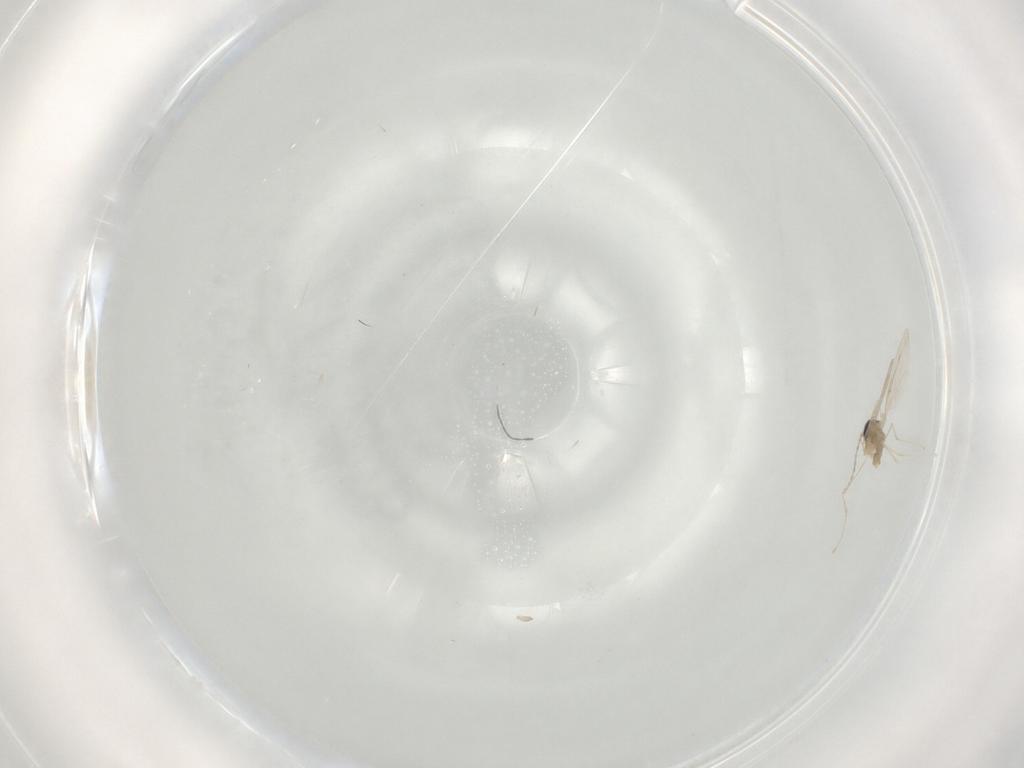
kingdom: Animalia
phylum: Arthropoda
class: Insecta
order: Diptera
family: Cecidomyiidae
